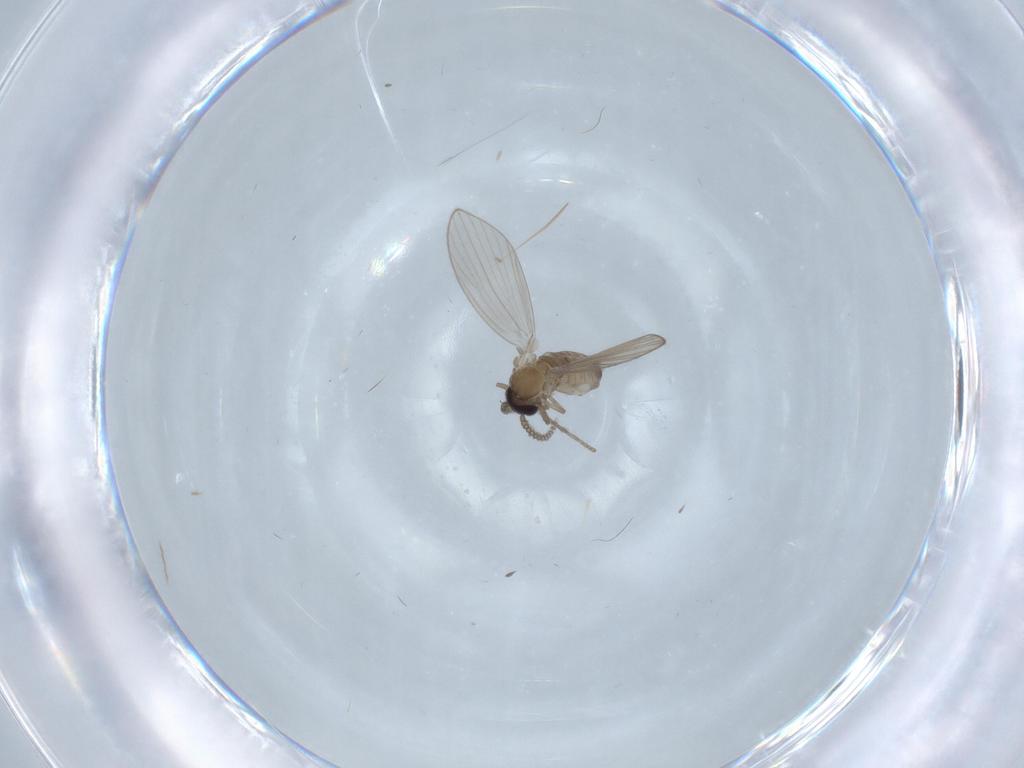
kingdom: Animalia
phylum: Arthropoda
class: Insecta
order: Diptera
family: Psychodidae
